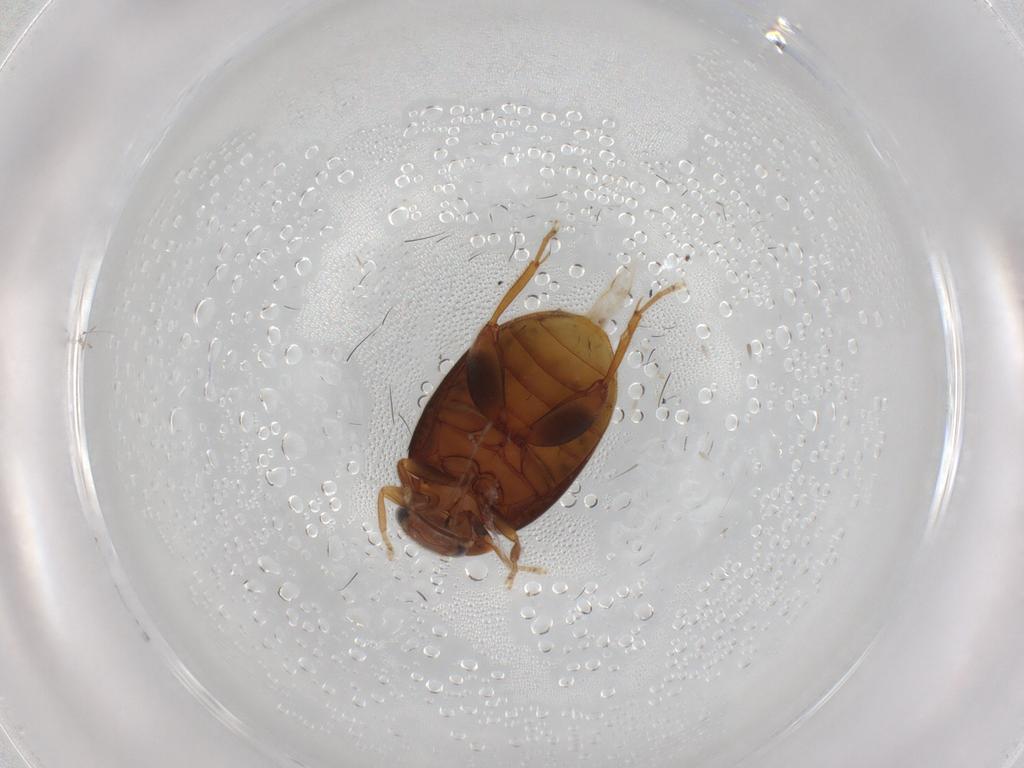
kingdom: Animalia
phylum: Arthropoda
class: Insecta
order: Coleoptera
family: Scirtidae
